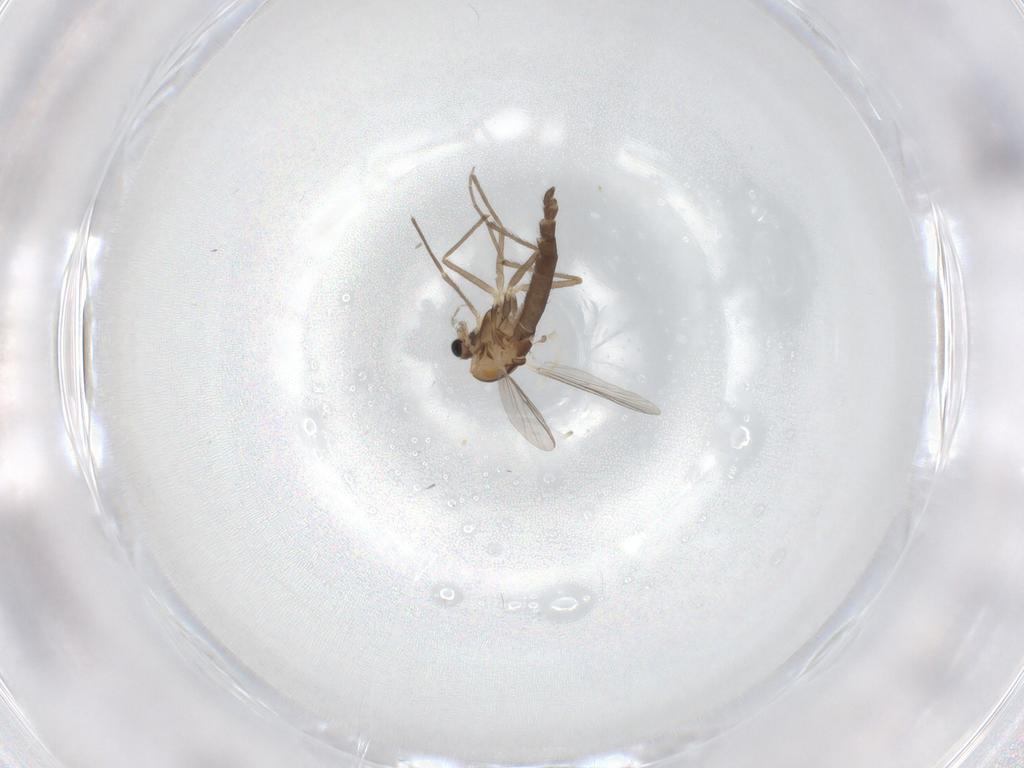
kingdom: Animalia
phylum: Arthropoda
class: Insecta
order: Diptera
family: Chironomidae
